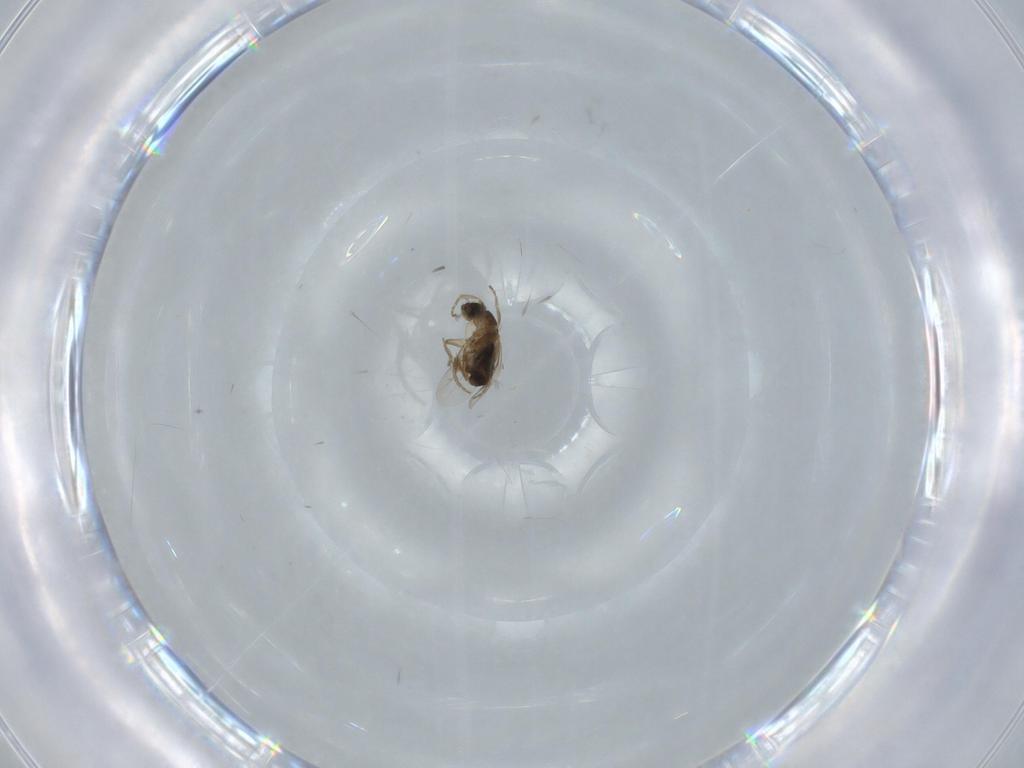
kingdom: Animalia
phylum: Arthropoda
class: Insecta
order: Diptera
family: Phoridae
